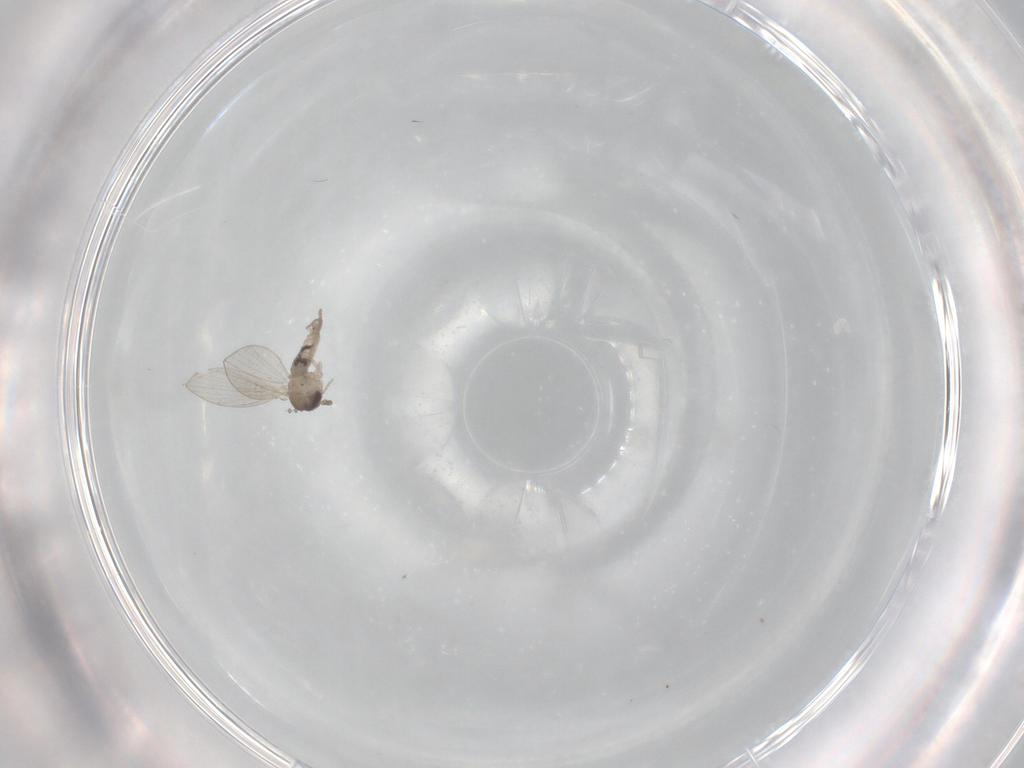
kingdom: Animalia
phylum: Arthropoda
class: Insecta
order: Diptera
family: Psychodidae
